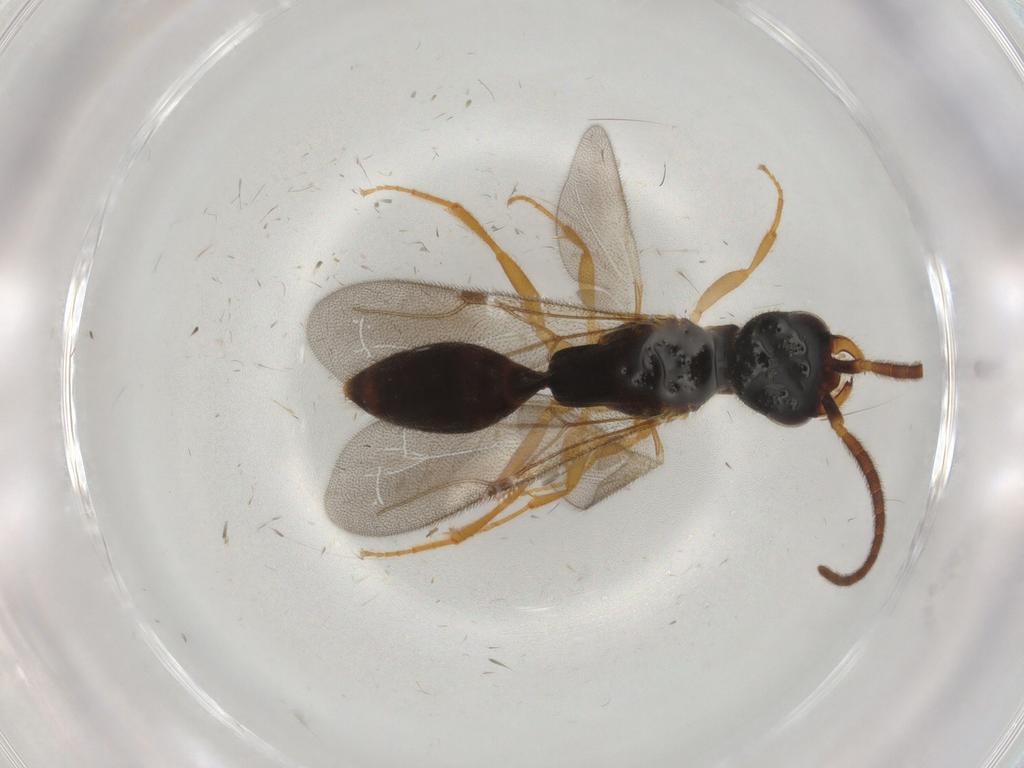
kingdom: Animalia
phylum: Arthropoda
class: Insecta
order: Hymenoptera
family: Bethylidae
